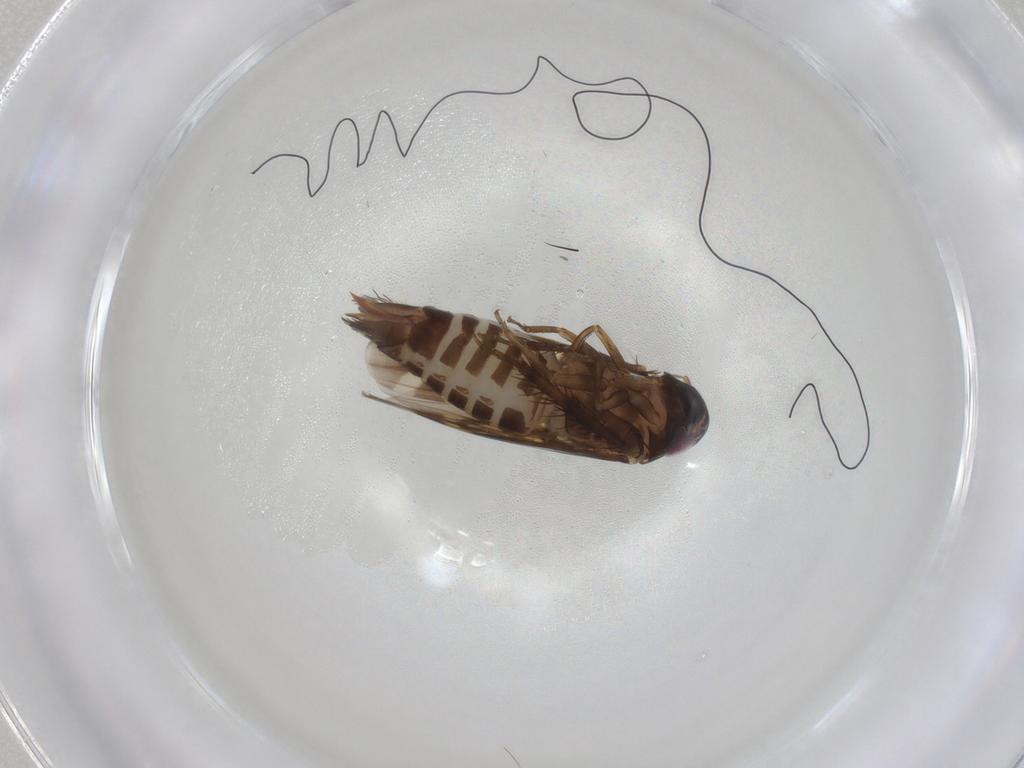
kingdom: Animalia
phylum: Arthropoda
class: Insecta
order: Hemiptera
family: Cicadellidae
